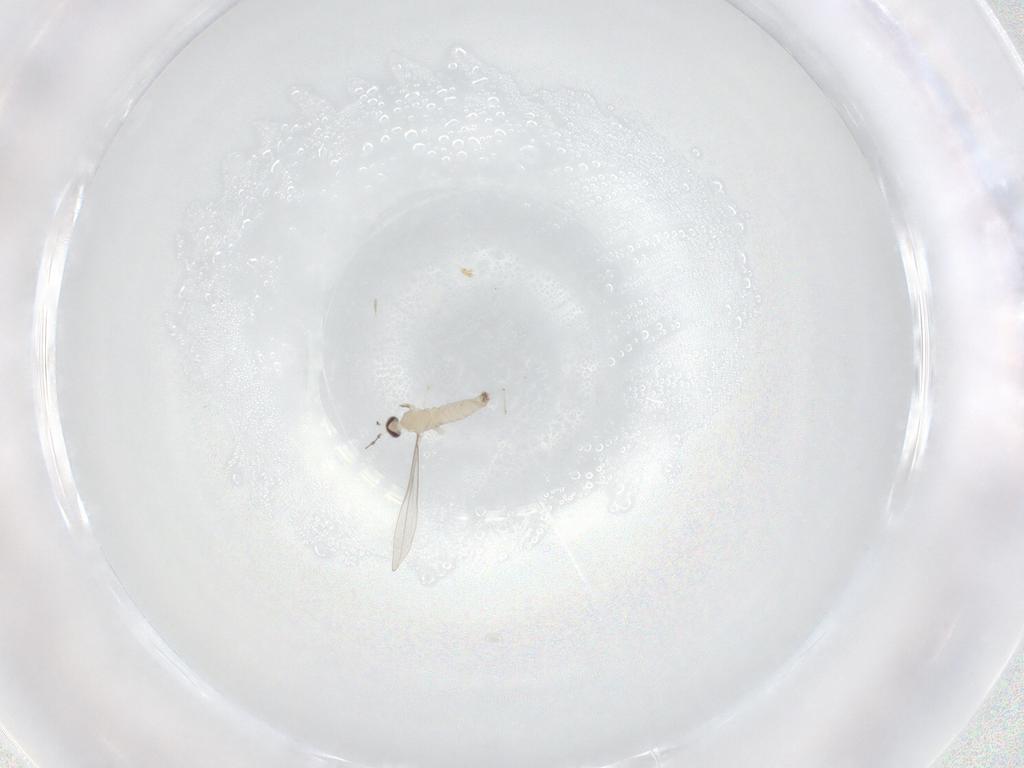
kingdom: Animalia
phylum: Arthropoda
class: Insecta
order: Diptera
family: Cecidomyiidae
